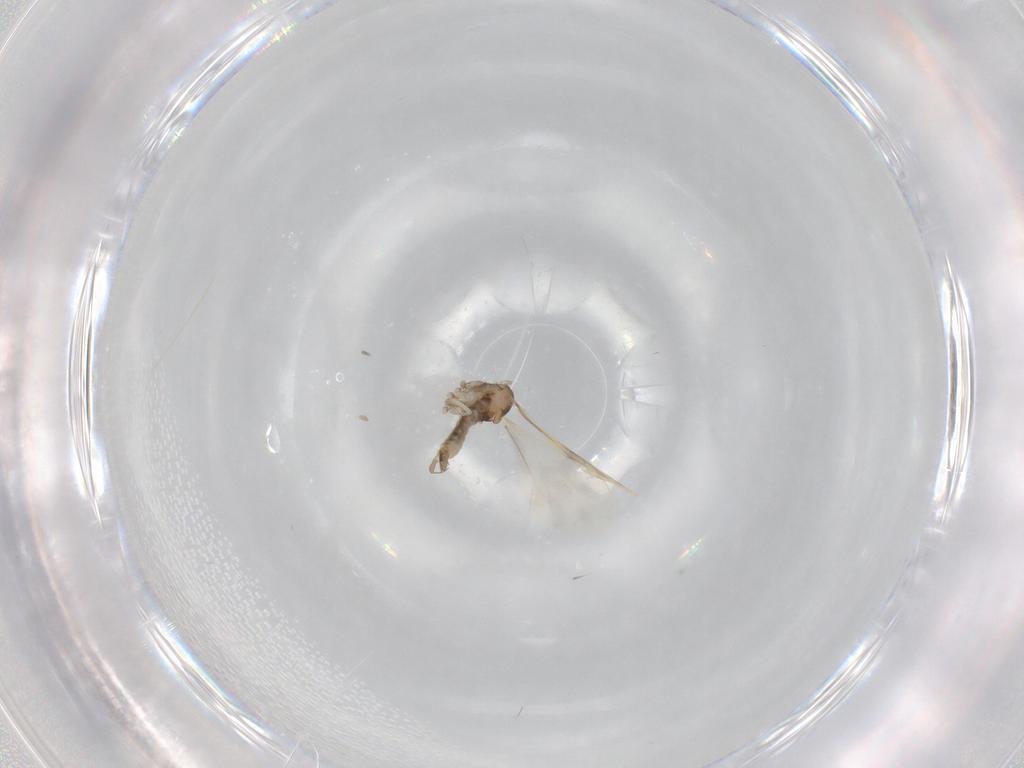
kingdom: Animalia
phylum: Arthropoda
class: Insecta
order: Diptera
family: Cecidomyiidae
